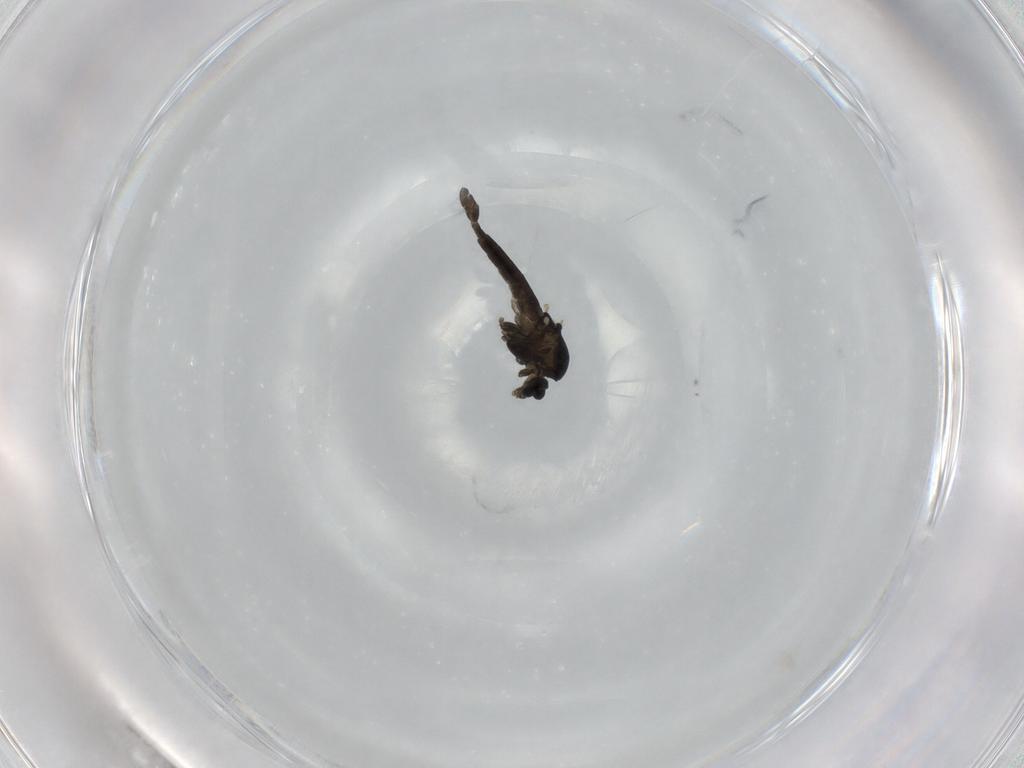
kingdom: Animalia
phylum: Arthropoda
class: Insecta
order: Diptera
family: Chironomidae
